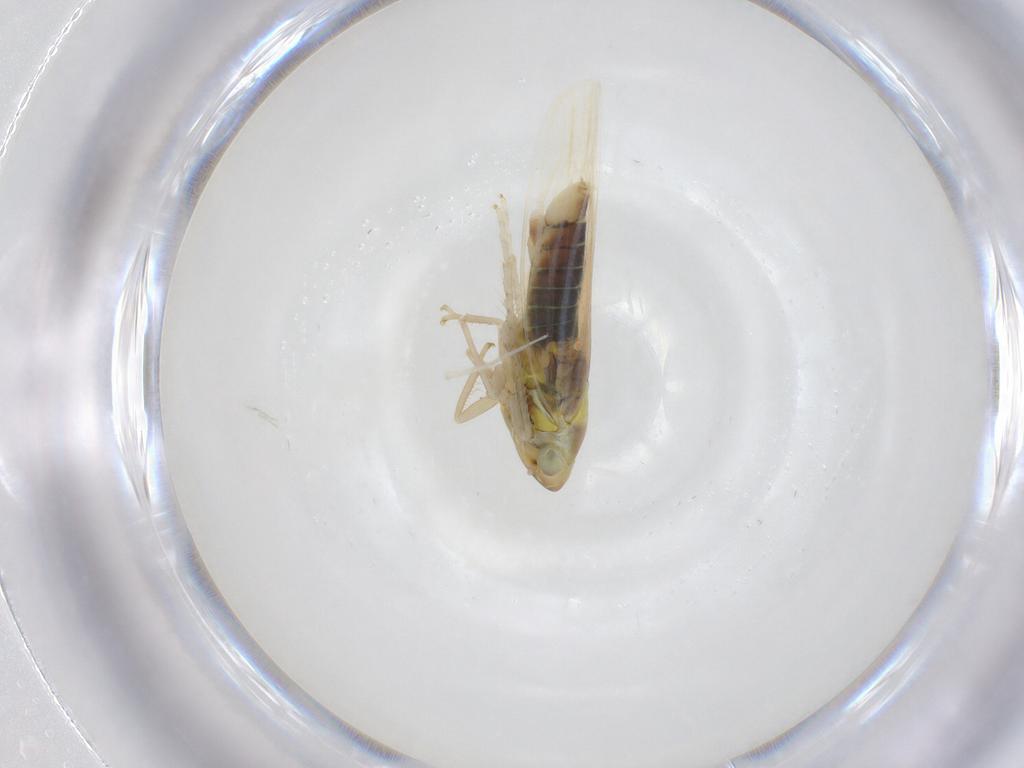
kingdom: Animalia
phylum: Arthropoda
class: Insecta
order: Hemiptera
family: Cicadellidae
